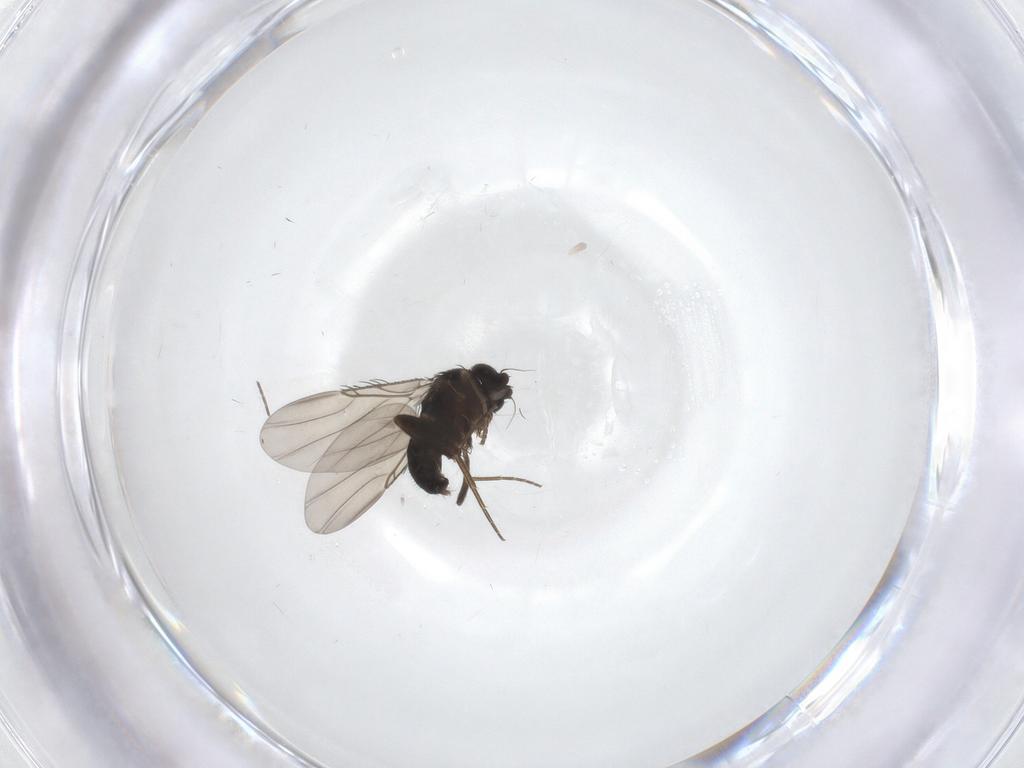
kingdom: Animalia
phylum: Arthropoda
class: Insecta
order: Diptera
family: Phoridae
